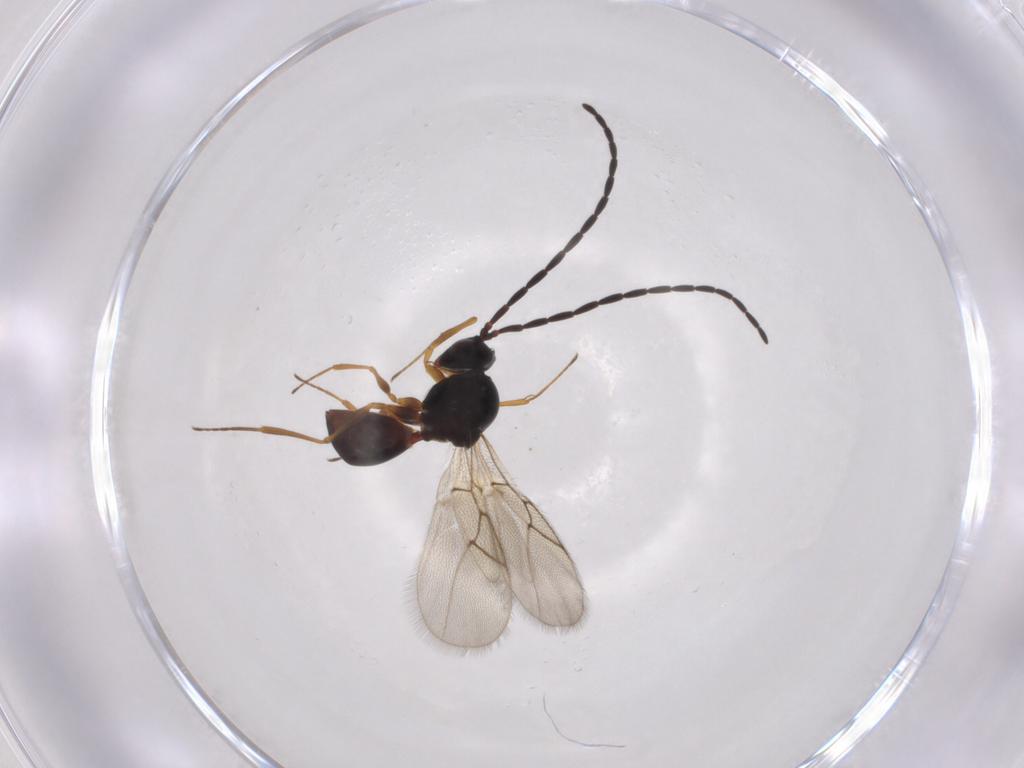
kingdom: Animalia
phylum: Arthropoda
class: Insecta
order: Hymenoptera
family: Figitidae
